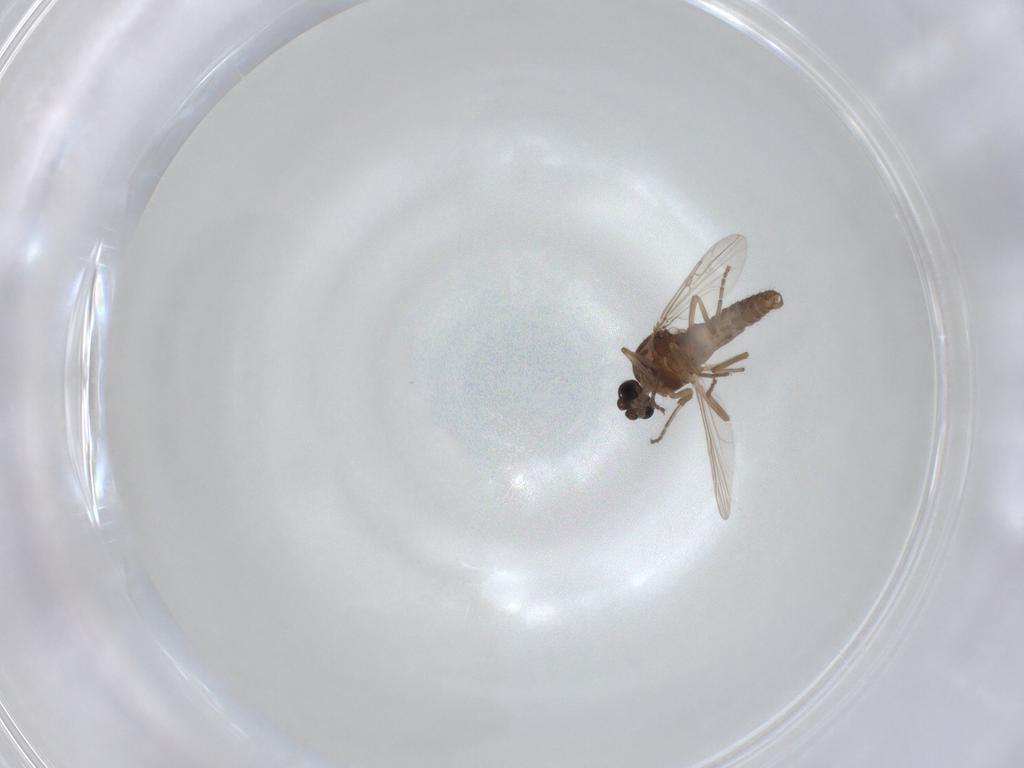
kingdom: Animalia
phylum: Arthropoda
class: Insecta
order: Diptera
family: Ceratopogonidae
